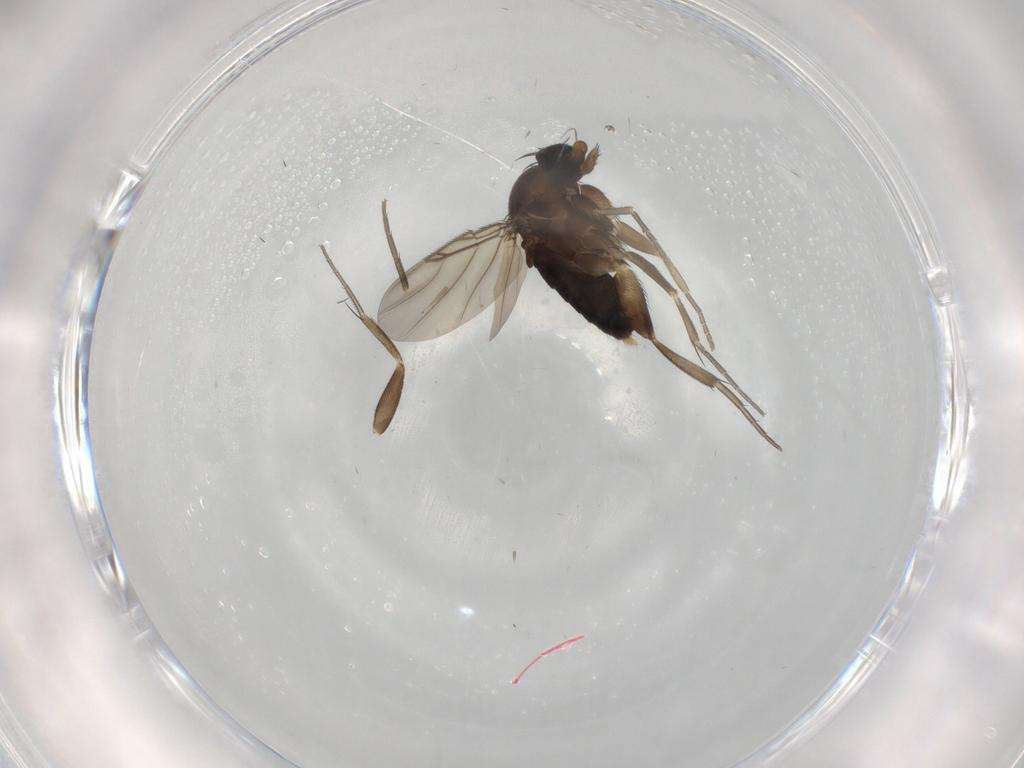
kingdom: Animalia
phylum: Arthropoda
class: Insecta
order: Diptera
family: Phoridae
